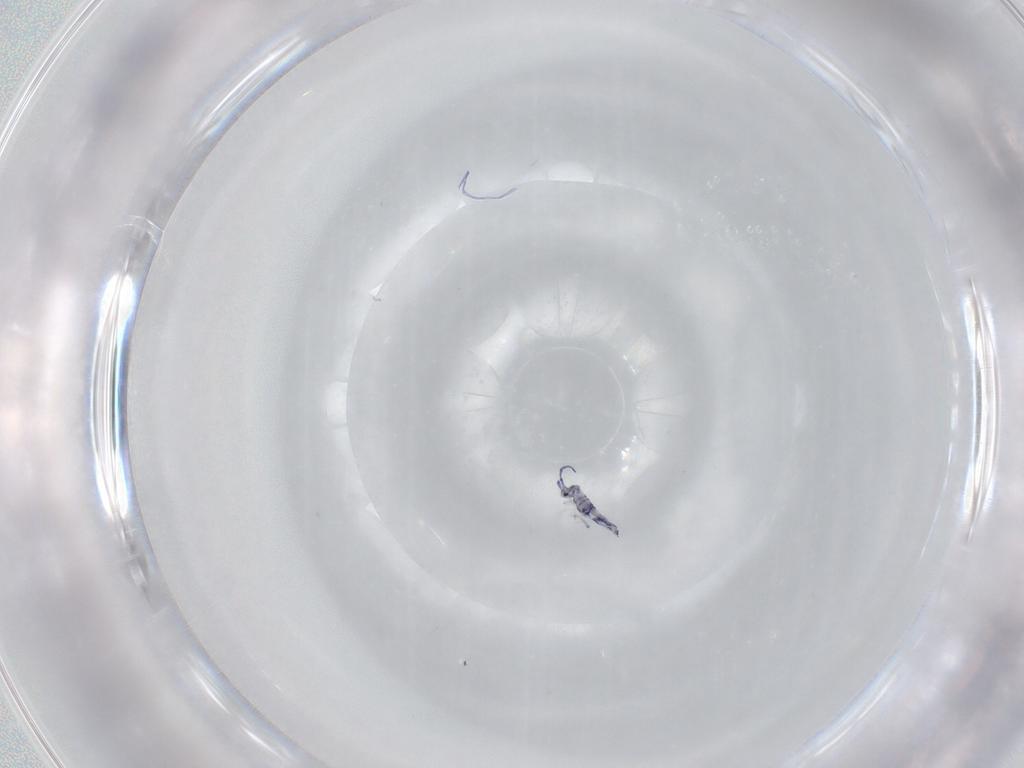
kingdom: Animalia
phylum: Arthropoda
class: Collembola
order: Entomobryomorpha
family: Entomobryidae
